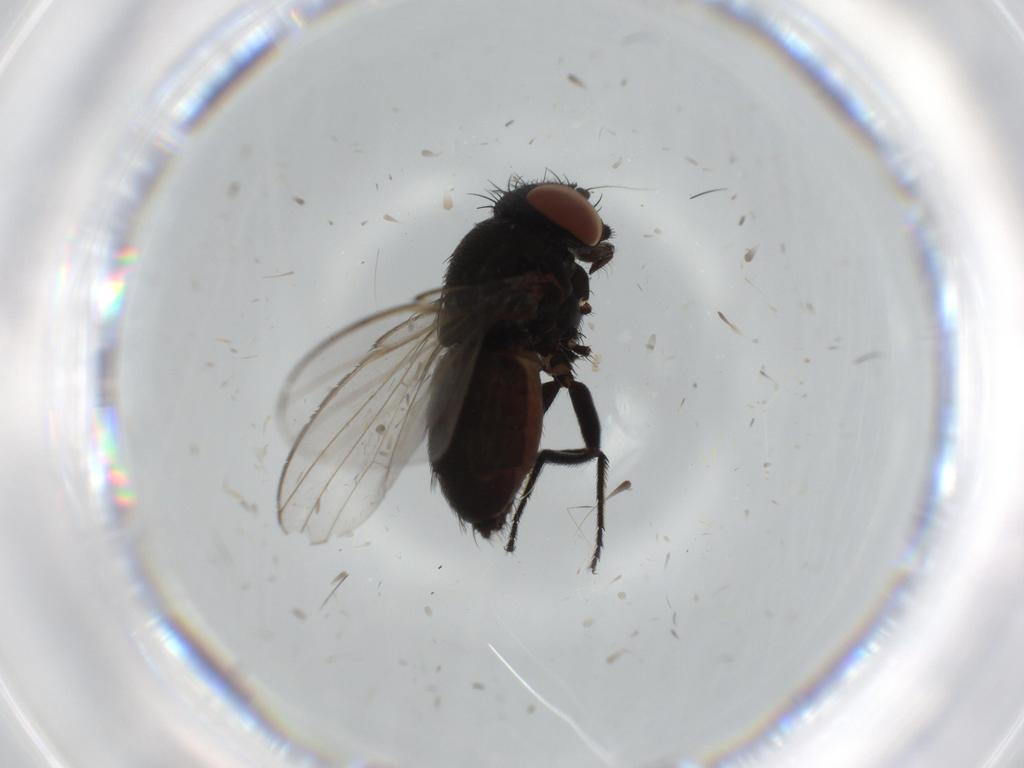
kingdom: Animalia
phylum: Arthropoda
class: Insecta
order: Diptera
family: Milichiidae
